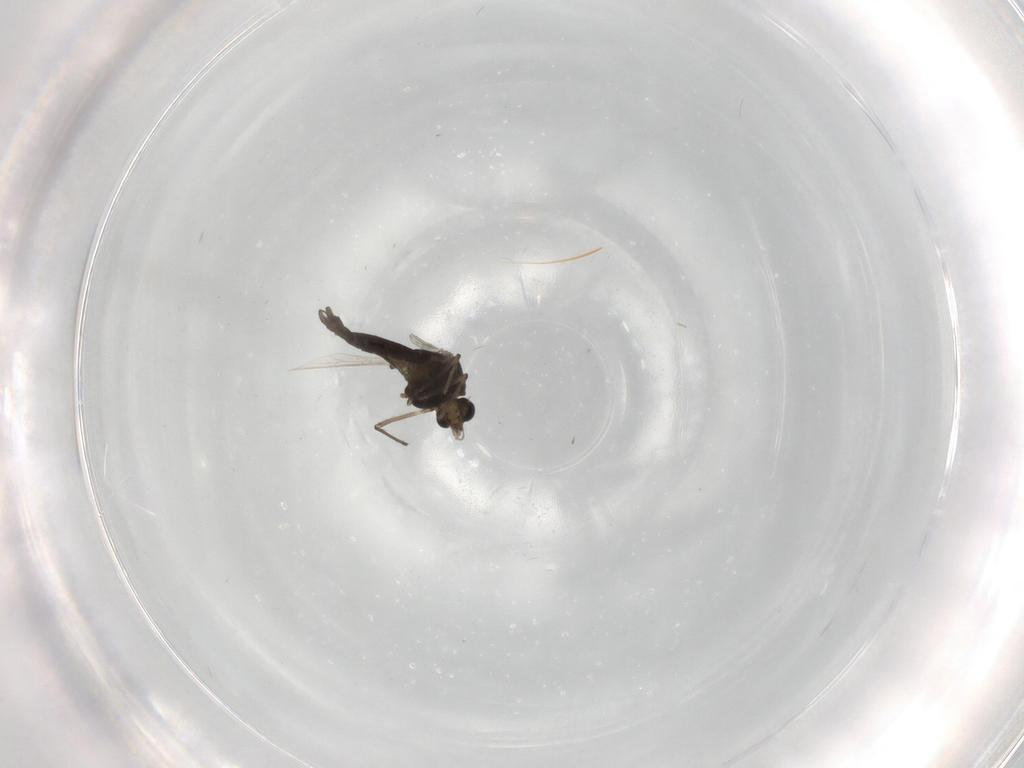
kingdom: Animalia
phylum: Arthropoda
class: Insecta
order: Diptera
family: Chironomidae
